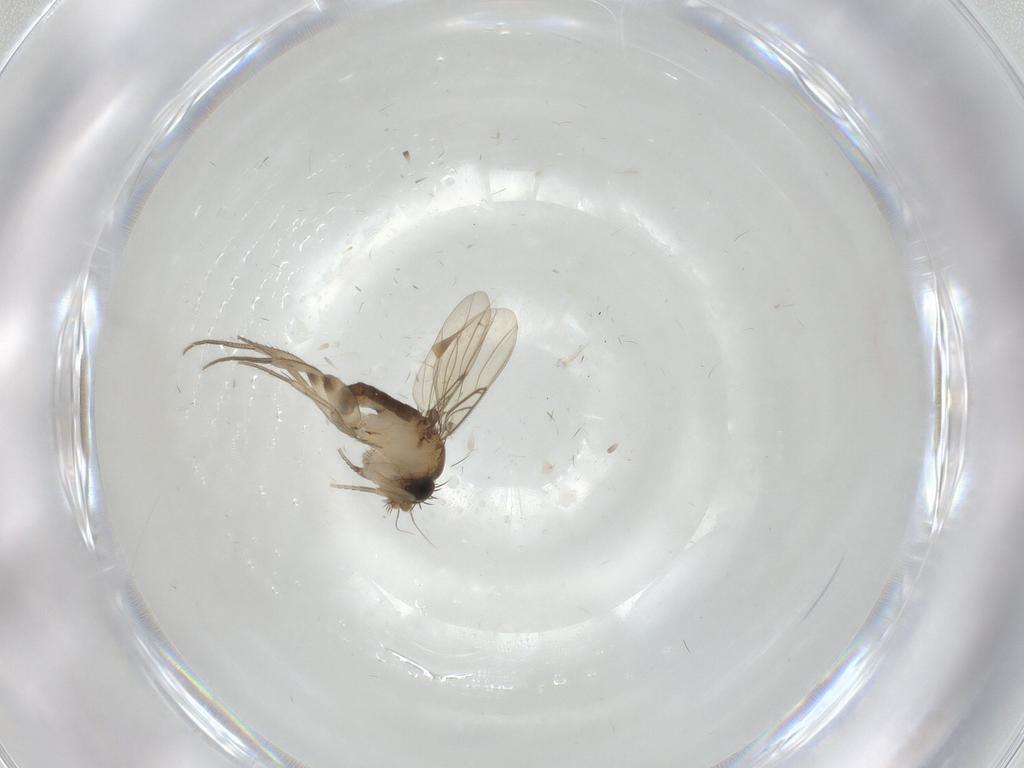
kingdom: Animalia
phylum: Arthropoda
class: Insecta
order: Diptera
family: Phoridae
